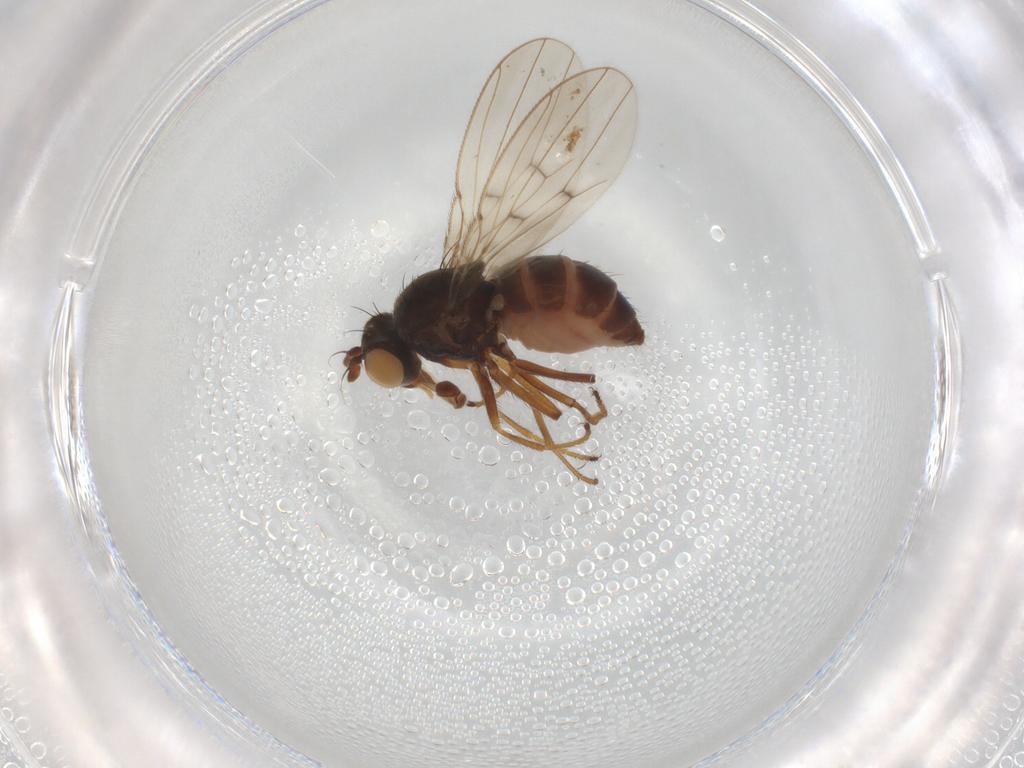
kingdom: Animalia
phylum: Arthropoda
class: Insecta
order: Diptera
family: Ephydridae
